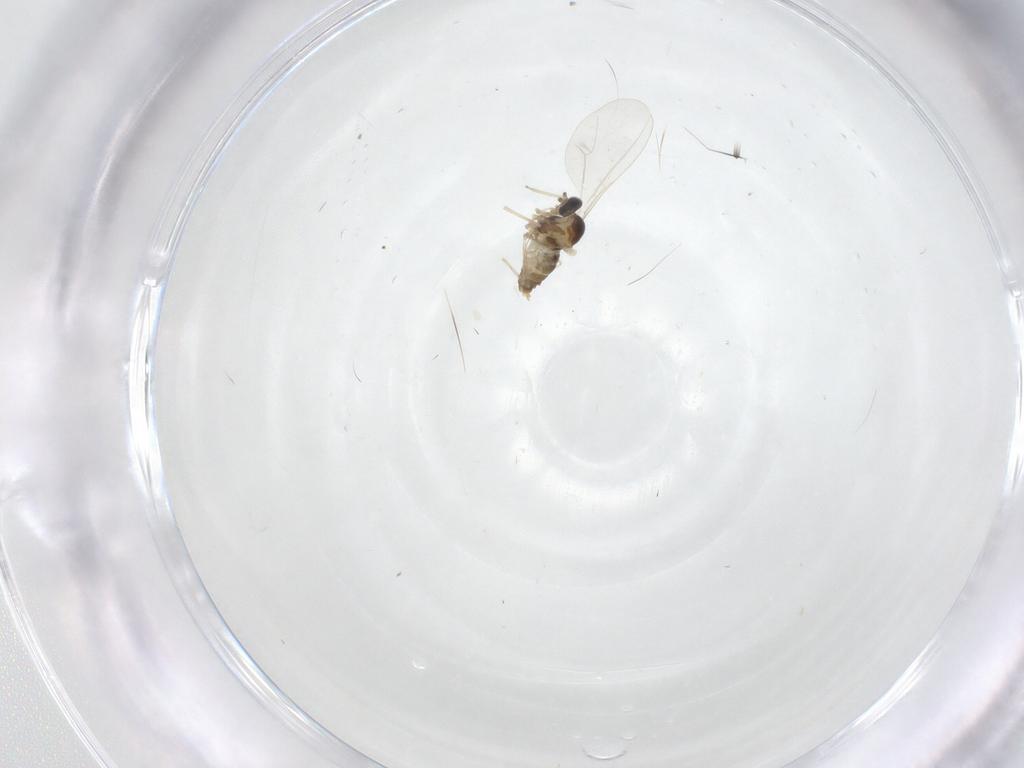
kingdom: Animalia
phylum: Arthropoda
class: Insecta
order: Diptera
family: Cecidomyiidae
